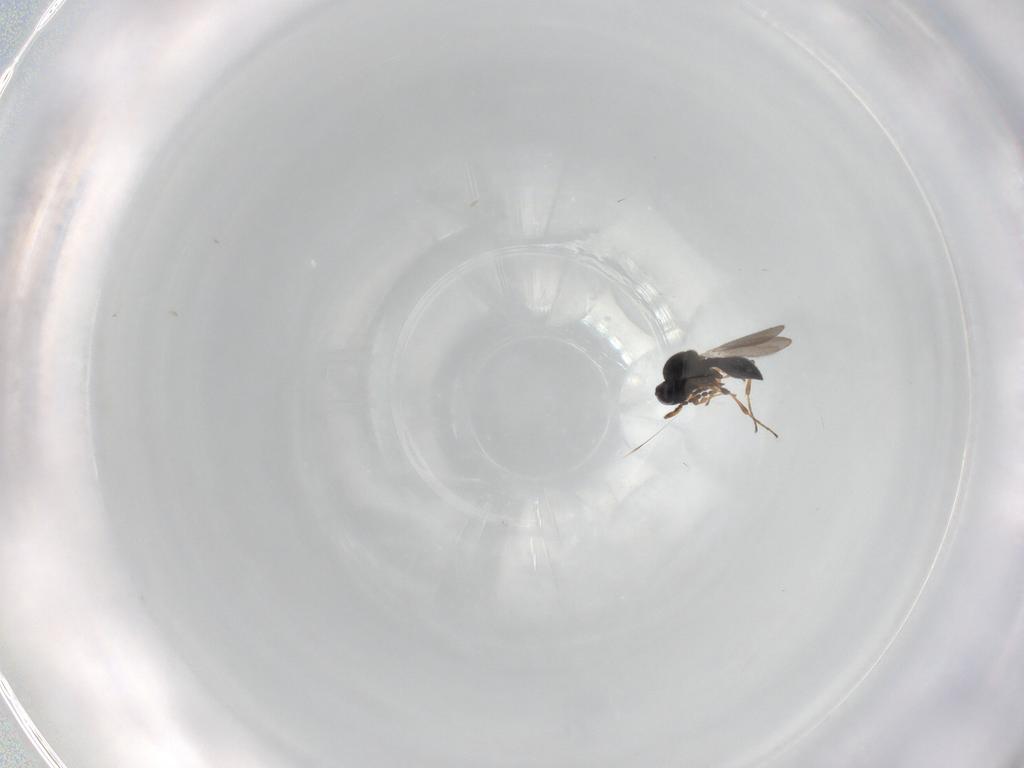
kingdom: Animalia
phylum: Arthropoda
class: Insecta
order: Hymenoptera
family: Platygastridae
